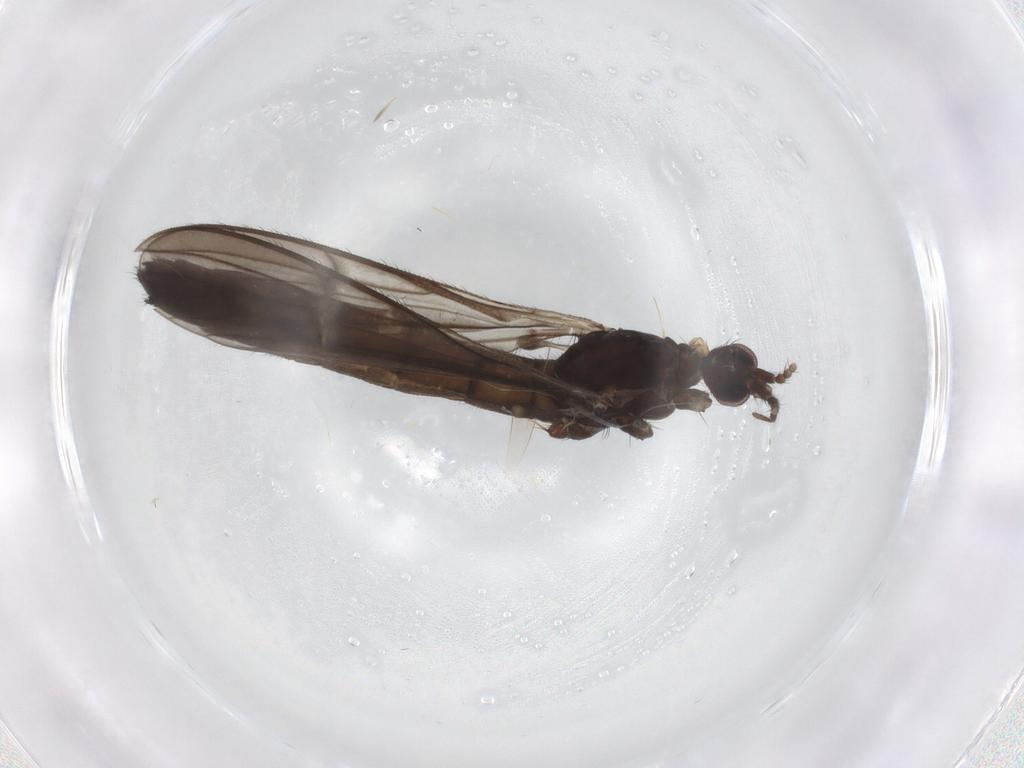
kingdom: Animalia
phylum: Arthropoda
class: Insecta
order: Diptera
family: Limoniidae
